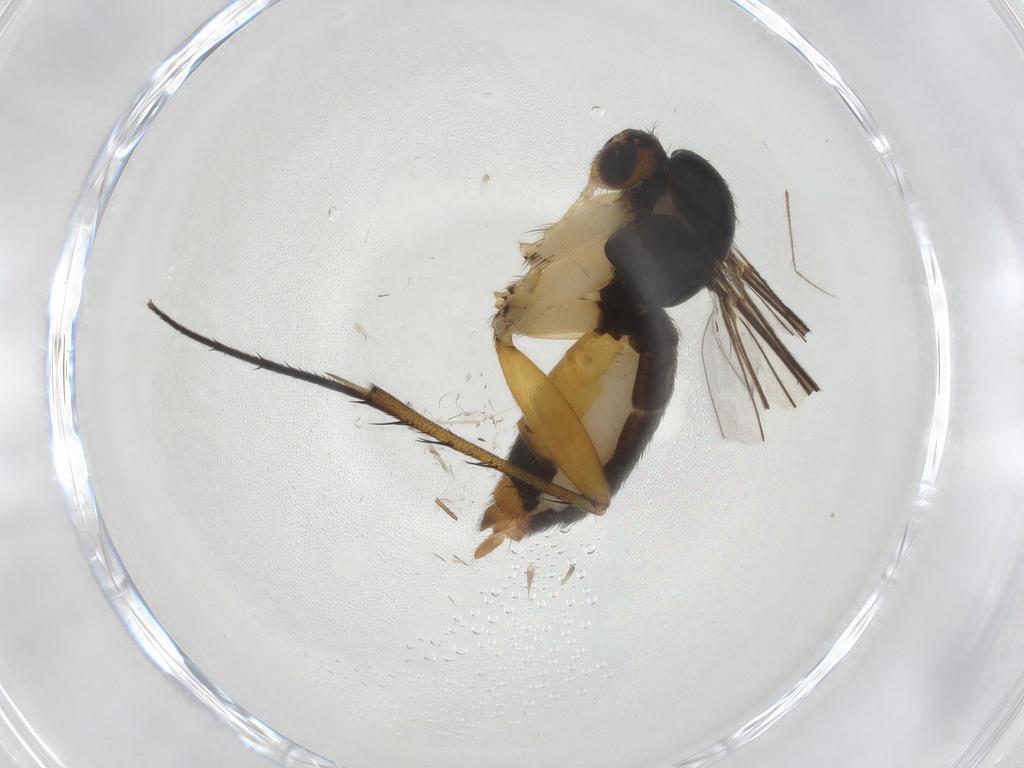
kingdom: Animalia
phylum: Arthropoda
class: Insecta
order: Diptera
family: Mycetophilidae
